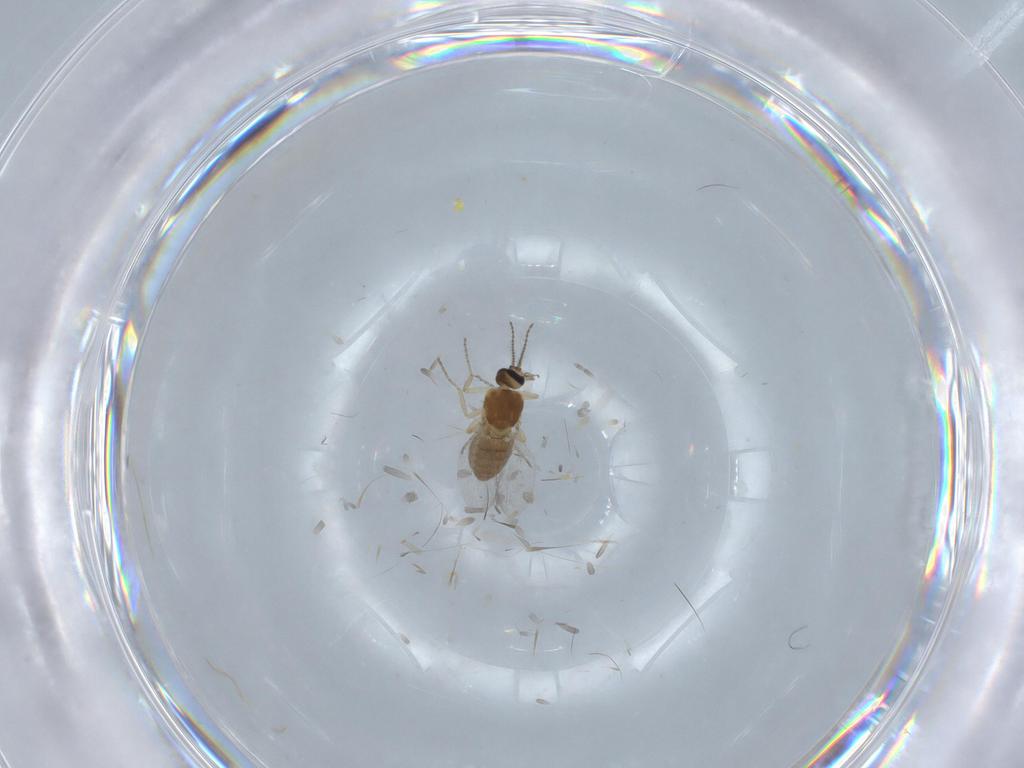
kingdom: Animalia
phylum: Arthropoda
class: Insecta
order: Diptera
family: Ceratopogonidae
